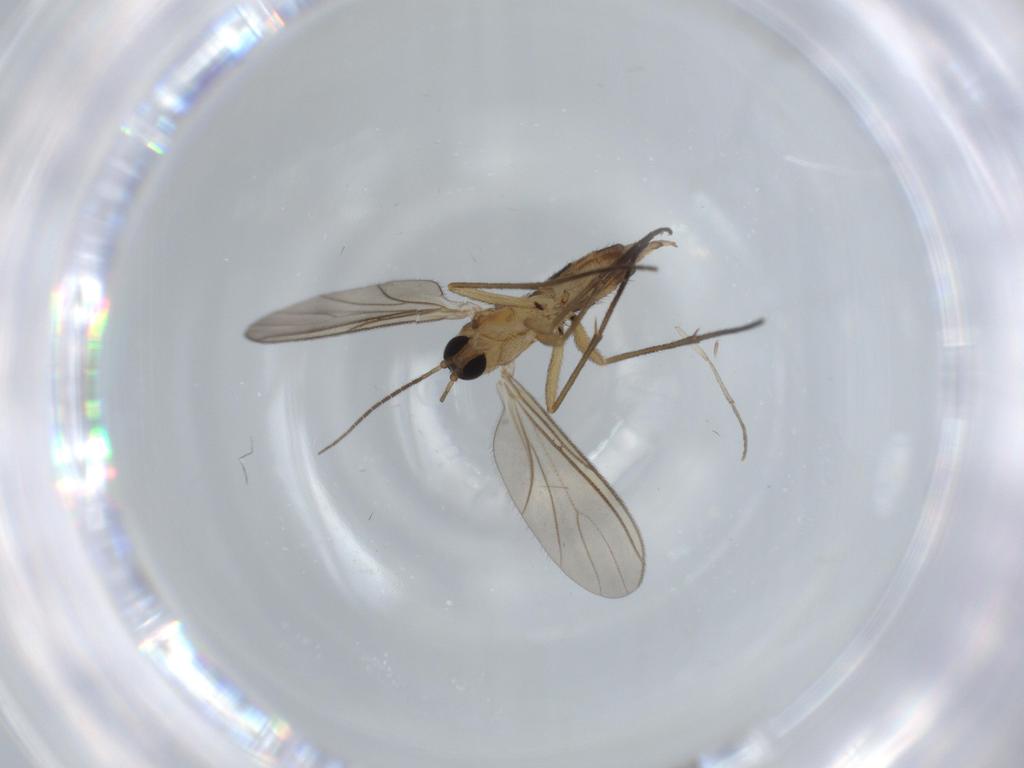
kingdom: Animalia
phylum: Arthropoda
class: Insecta
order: Diptera
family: Sciaridae
